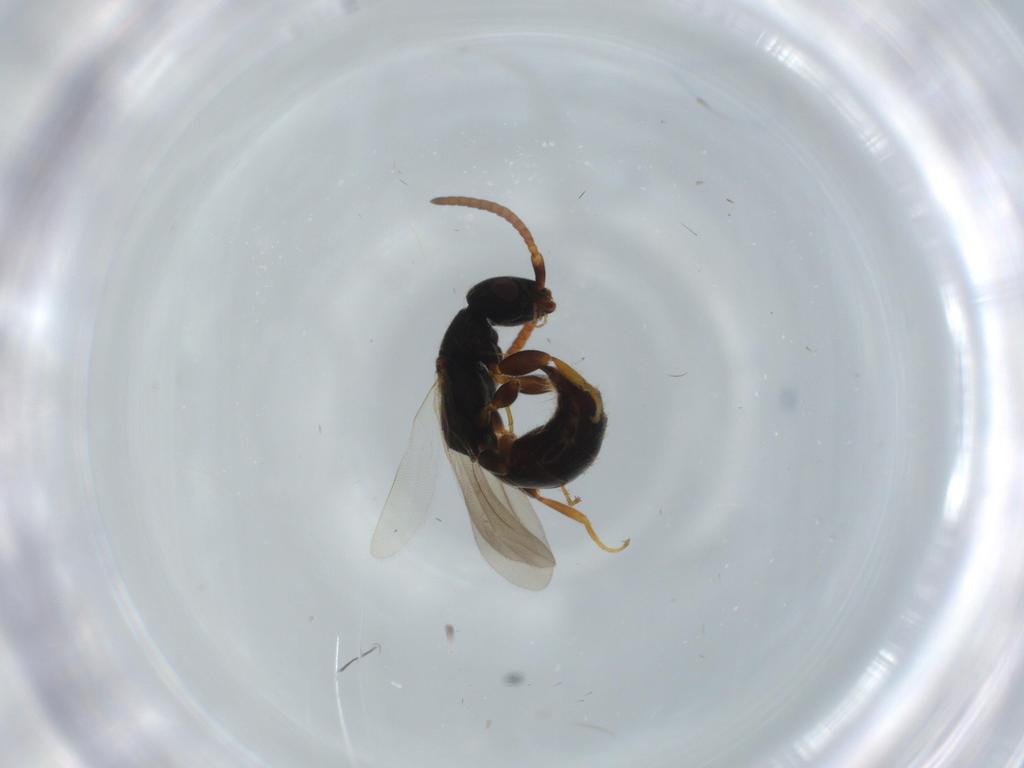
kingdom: Animalia
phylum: Arthropoda
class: Insecta
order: Hymenoptera
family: Bethylidae
